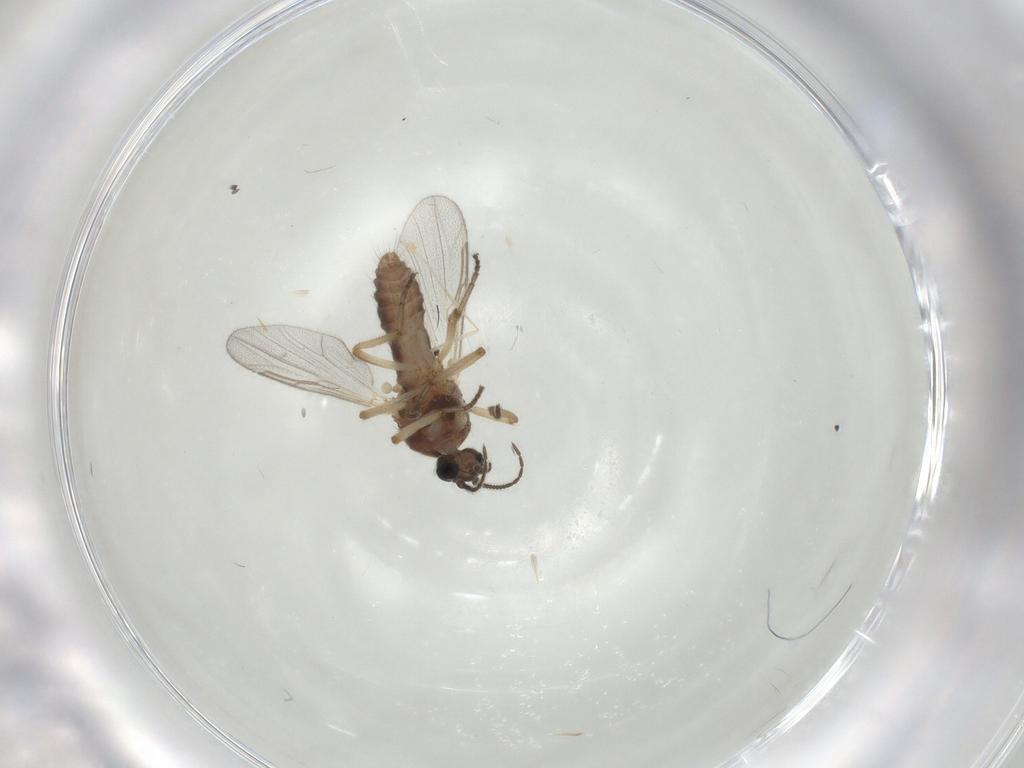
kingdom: Animalia
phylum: Arthropoda
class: Insecta
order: Diptera
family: Ceratopogonidae
